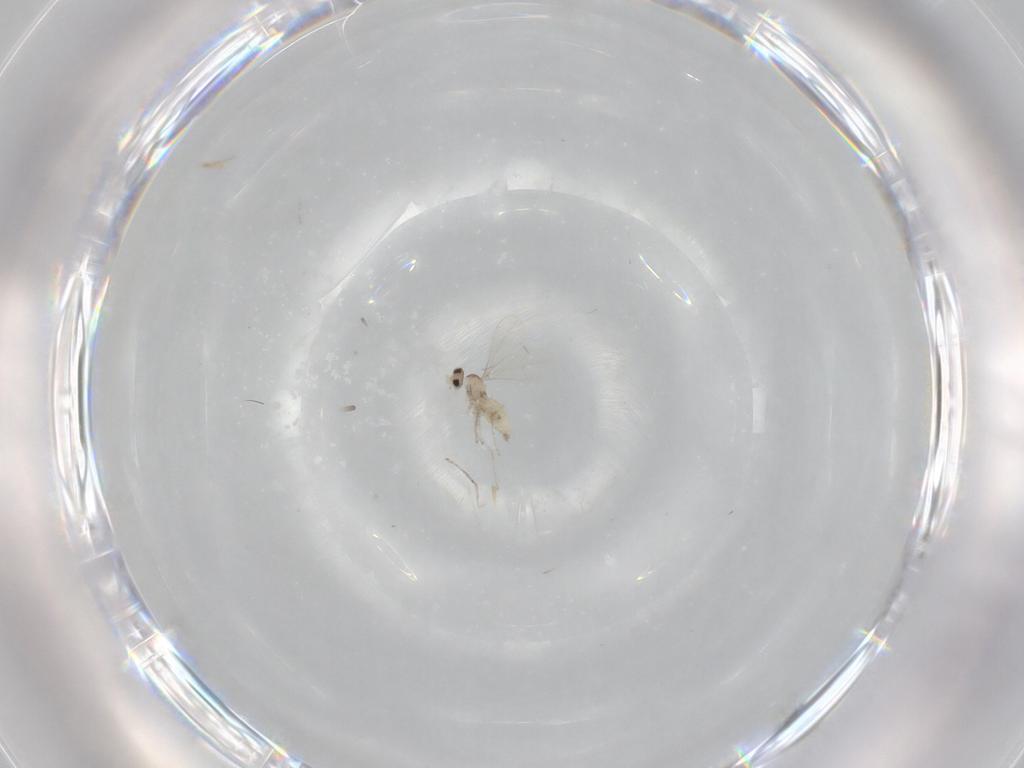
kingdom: Animalia
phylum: Arthropoda
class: Insecta
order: Diptera
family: Cecidomyiidae
